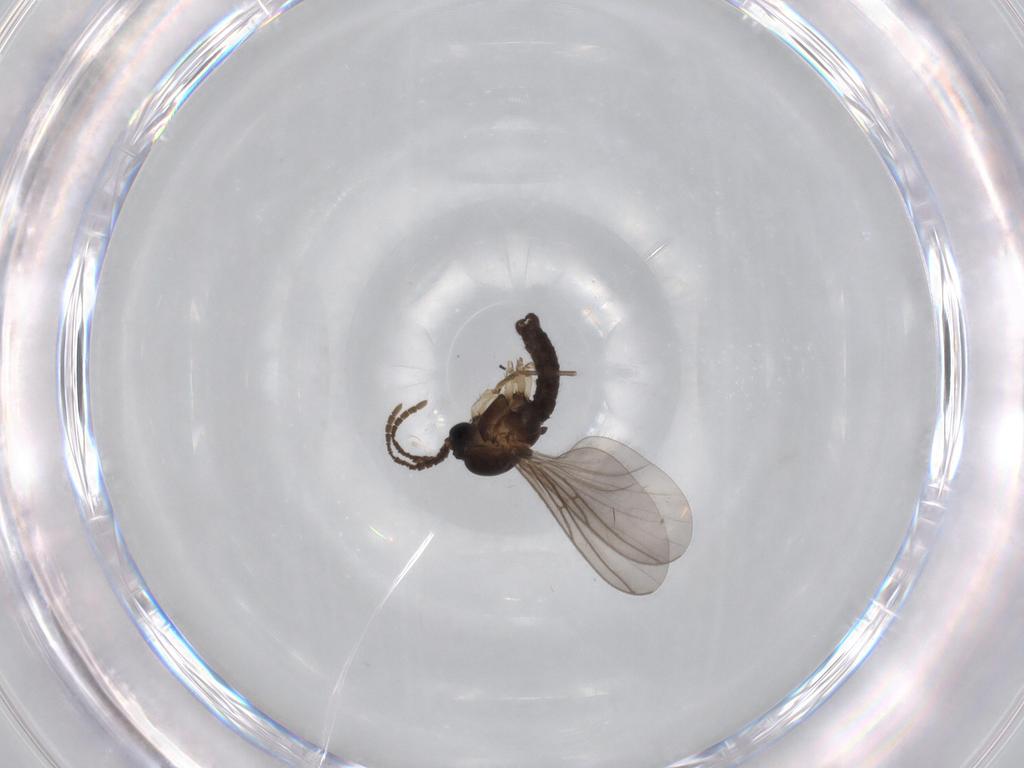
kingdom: Animalia
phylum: Arthropoda
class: Insecta
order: Diptera
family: Sciaridae
